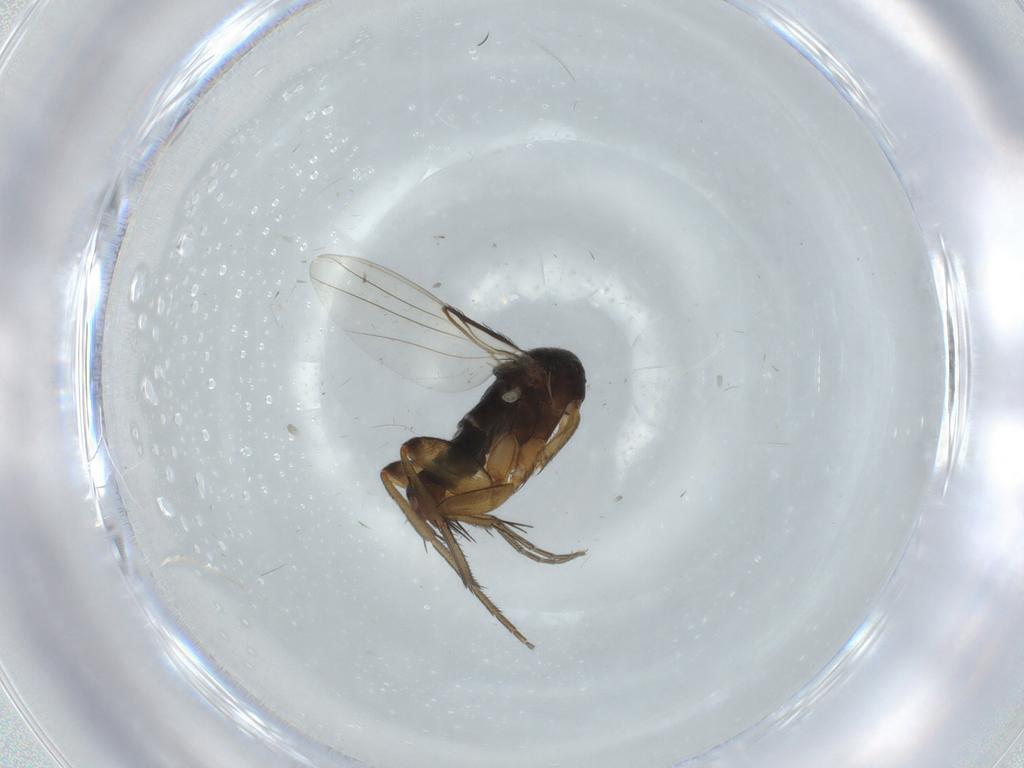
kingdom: Animalia
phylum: Arthropoda
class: Insecta
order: Diptera
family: Phoridae
